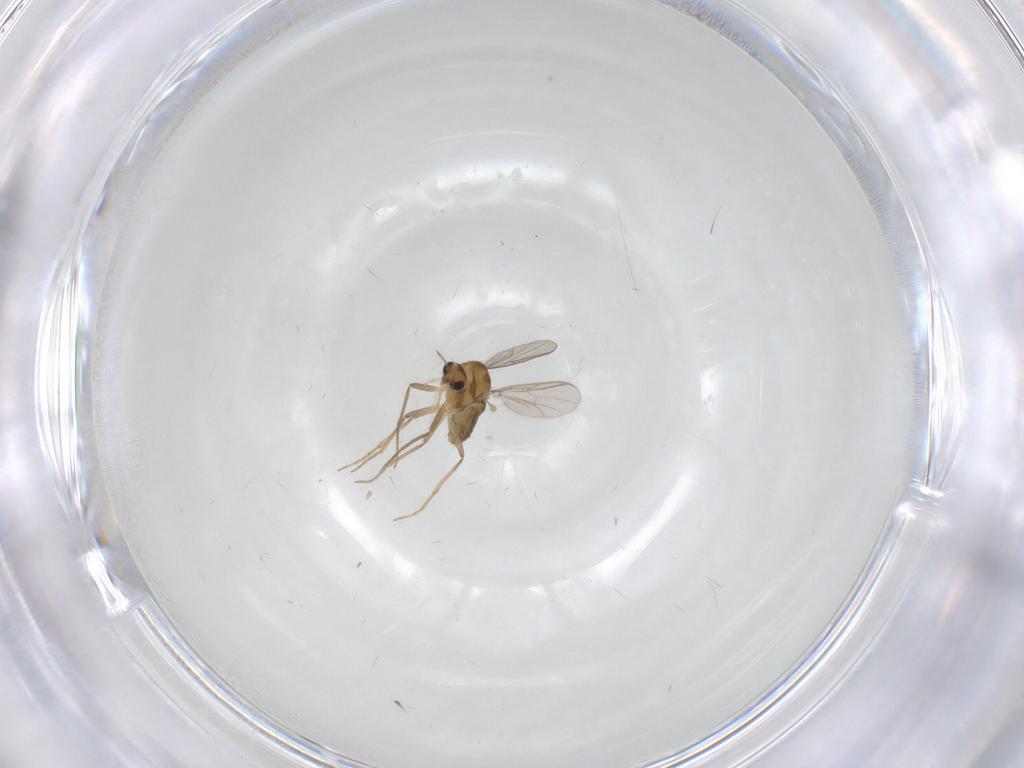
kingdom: Animalia
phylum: Arthropoda
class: Insecta
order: Diptera
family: Chironomidae
